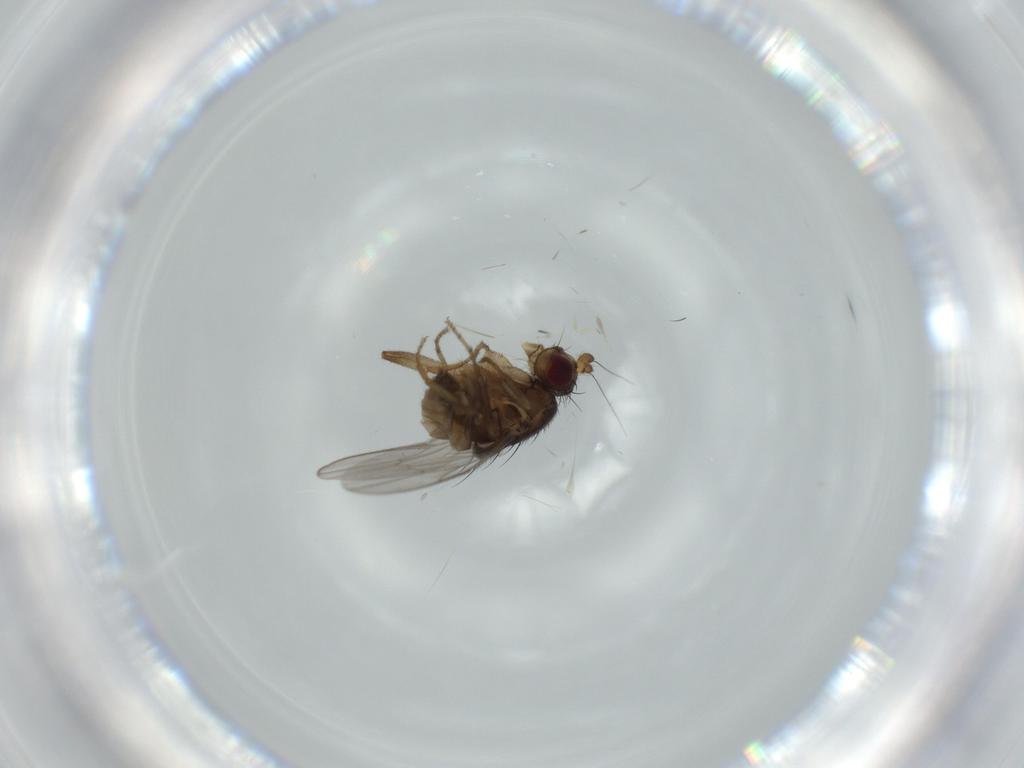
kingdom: Animalia
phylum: Arthropoda
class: Insecta
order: Diptera
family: Sphaeroceridae
